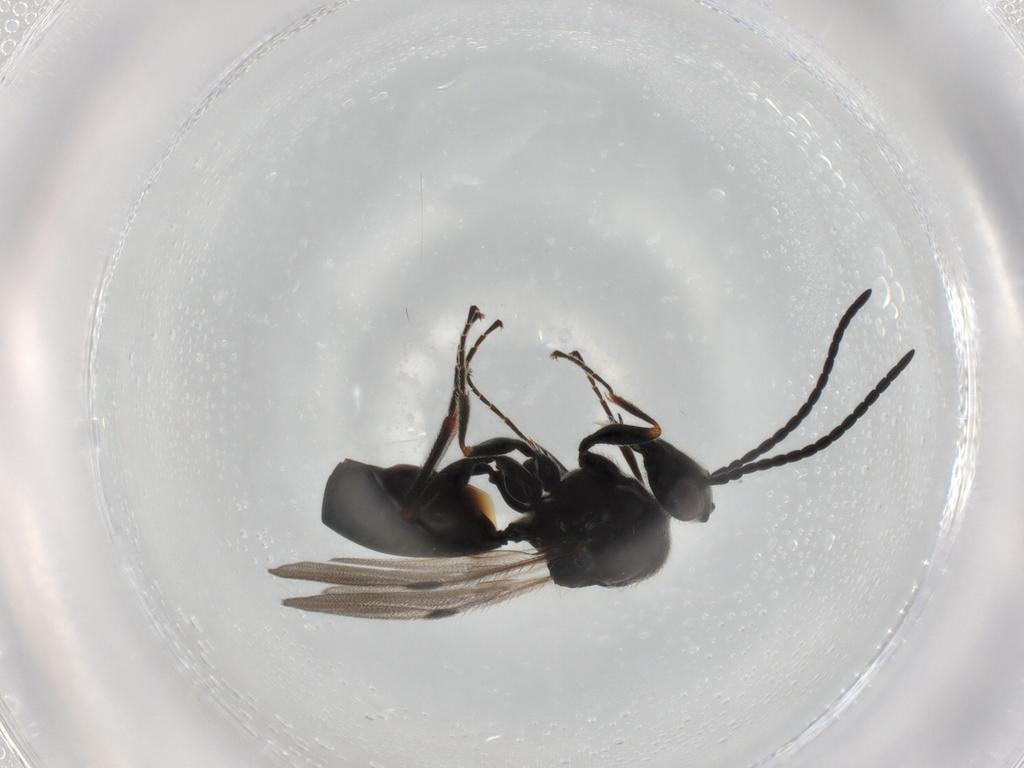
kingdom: Animalia
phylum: Arthropoda
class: Insecta
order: Hymenoptera
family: Figitidae
